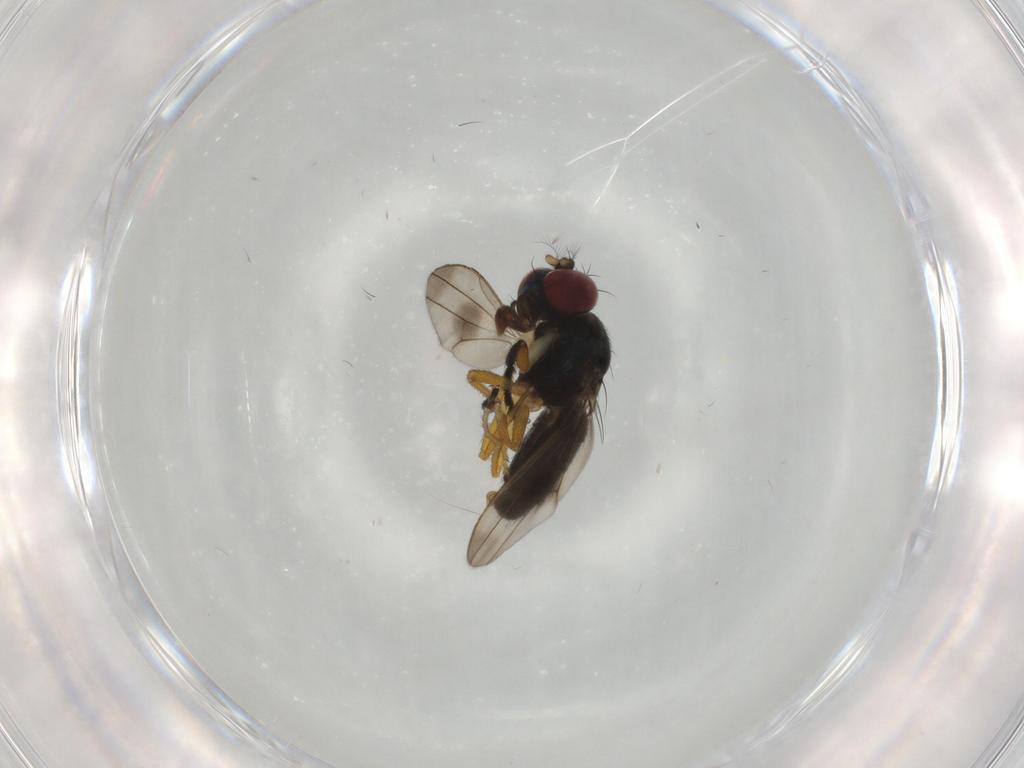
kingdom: Animalia
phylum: Arthropoda
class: Insecta
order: Diptera
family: Ephydridae
